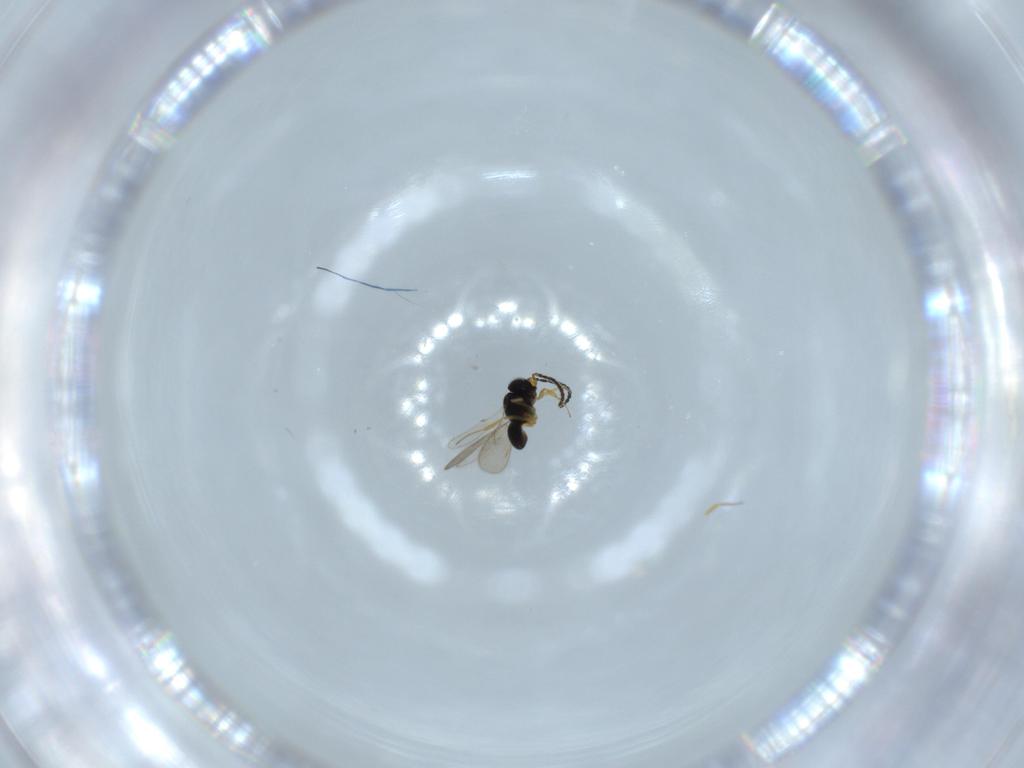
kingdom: Animalia
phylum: Arthropoda
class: Insecta
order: Hymenoptera
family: Scelionidae
